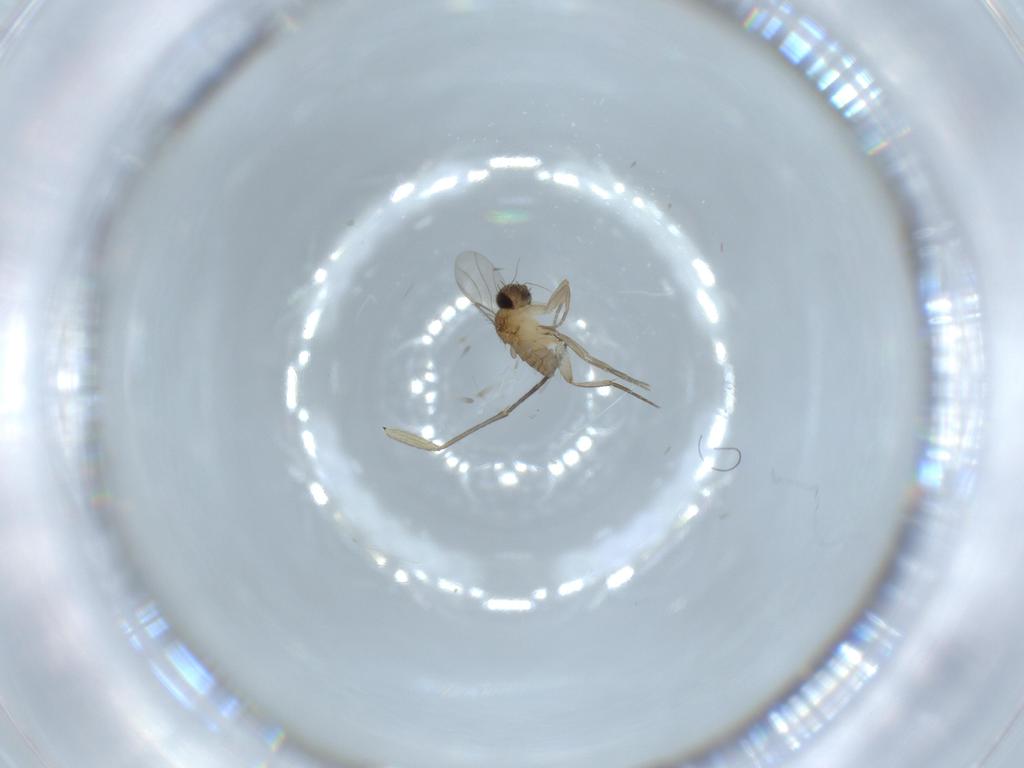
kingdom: Animalia
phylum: Arthropoda
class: Insecta
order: Diptera
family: Phoridae
